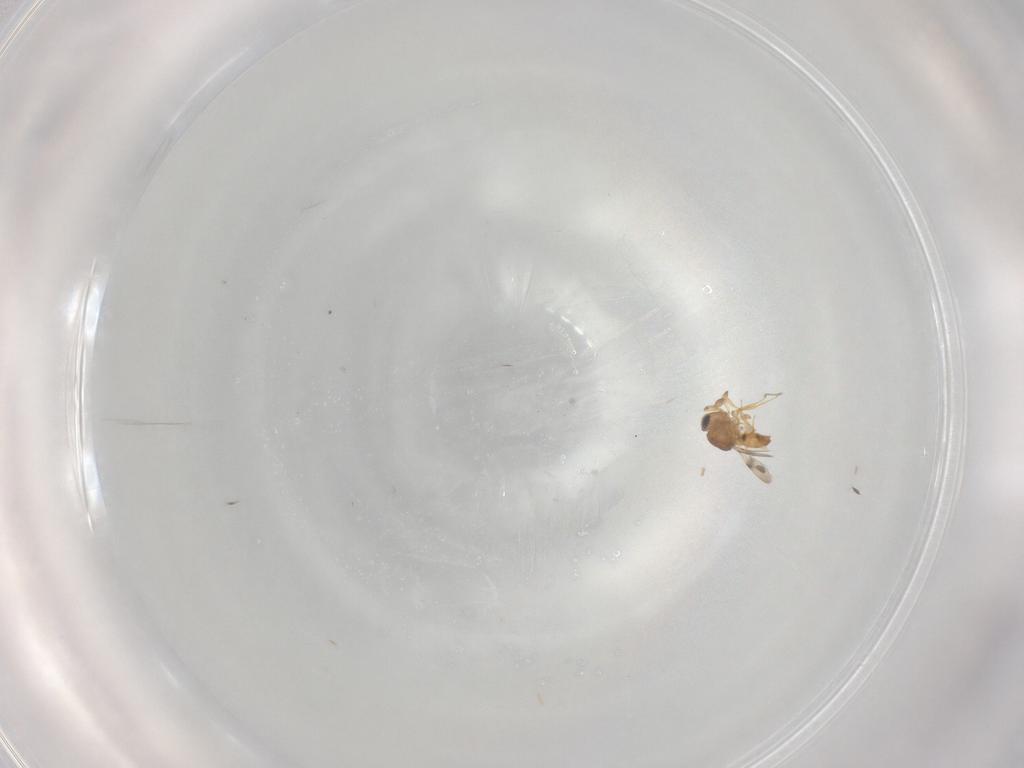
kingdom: Animalia
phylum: Arthropoda
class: Insecta
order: Hymenoptera
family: Scelionidae
